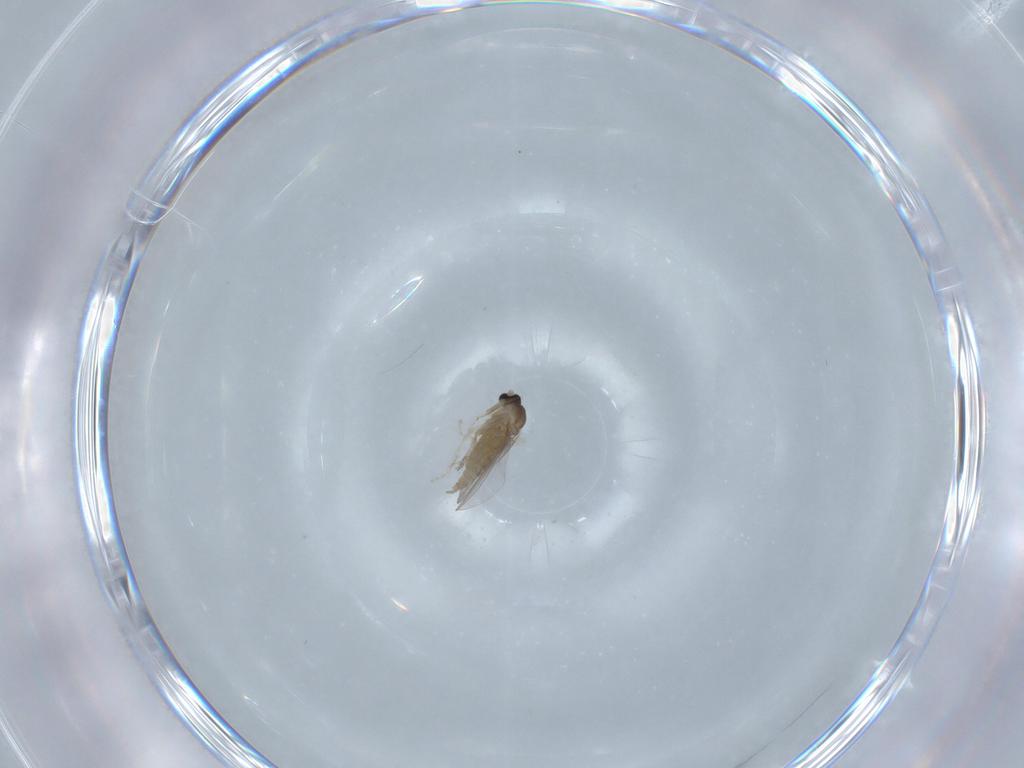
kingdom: Animalia
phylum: Arthropoda
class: Insecta
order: Diptera
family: Cecidomyiidae
